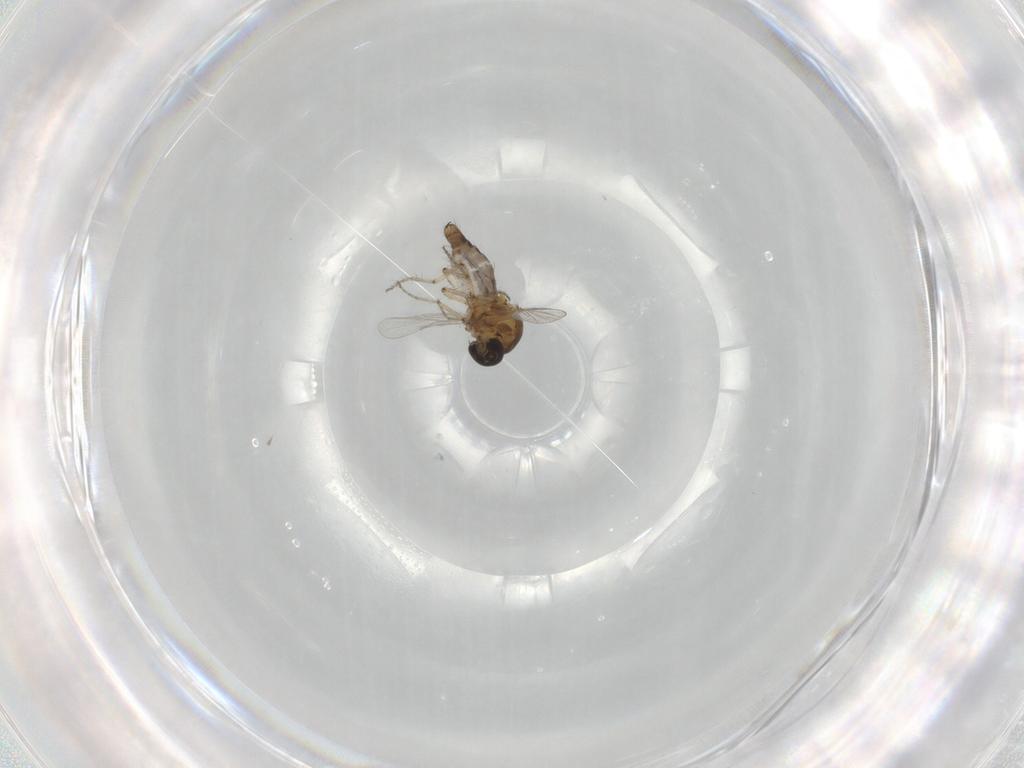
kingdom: Animalia
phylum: Arthropoda
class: Insecta
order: Diptera
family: Ceratopogonidae
